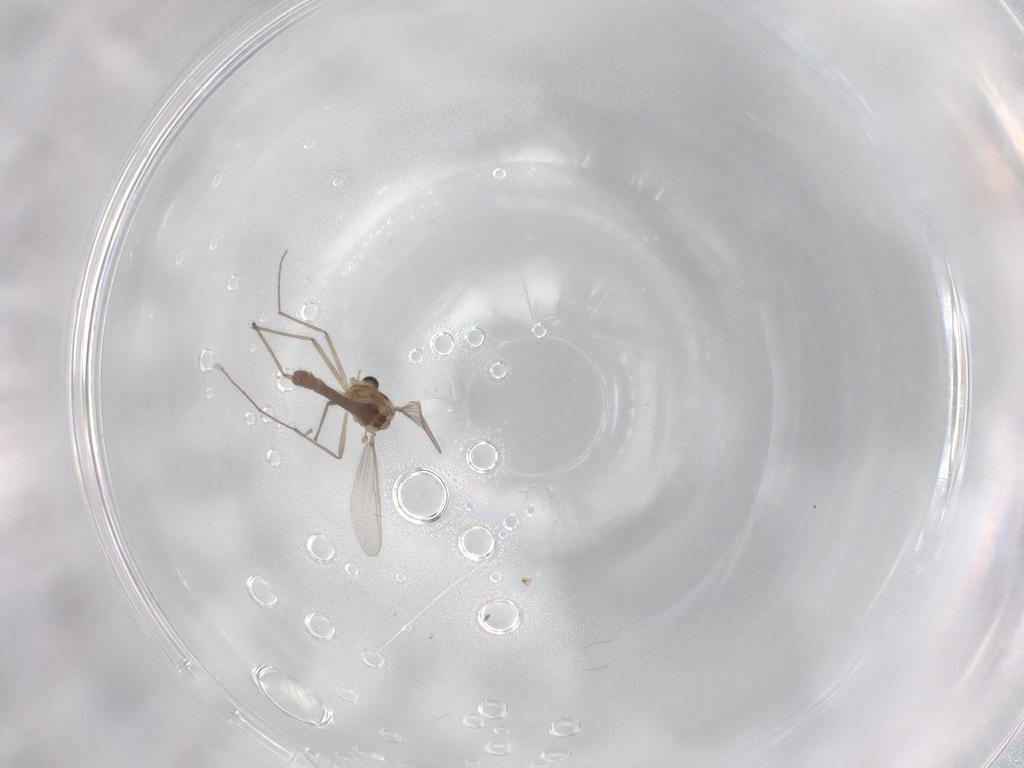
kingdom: Animalia
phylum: Arthropoda
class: Insecta
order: Diptera
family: Chironomidae
